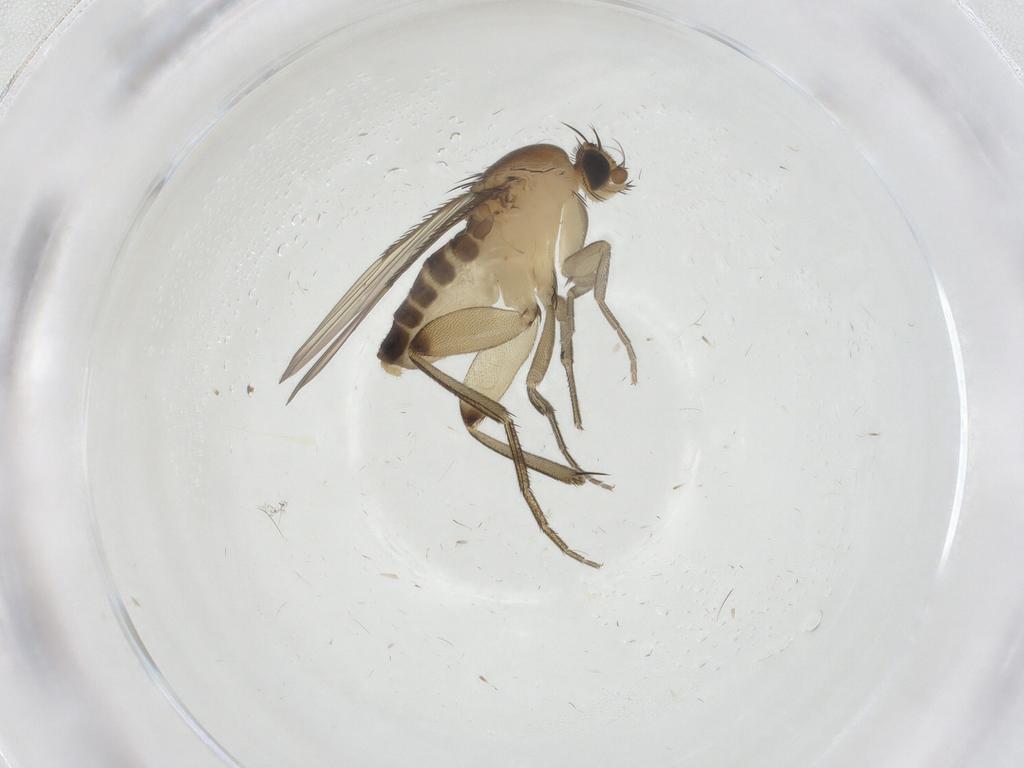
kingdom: Animalia
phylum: Arthropoda
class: Insecta
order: Diptera
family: Phoridae
